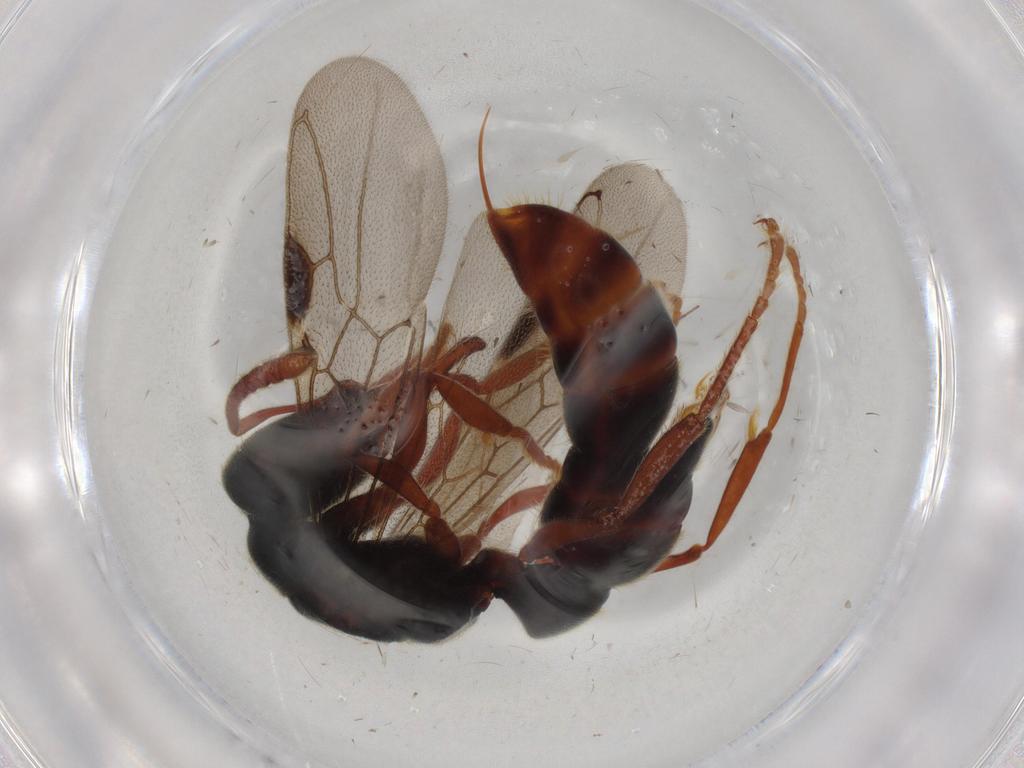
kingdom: Animalia
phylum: Arthropoda
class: Insecta
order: Hymenoptera
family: Formicidae
